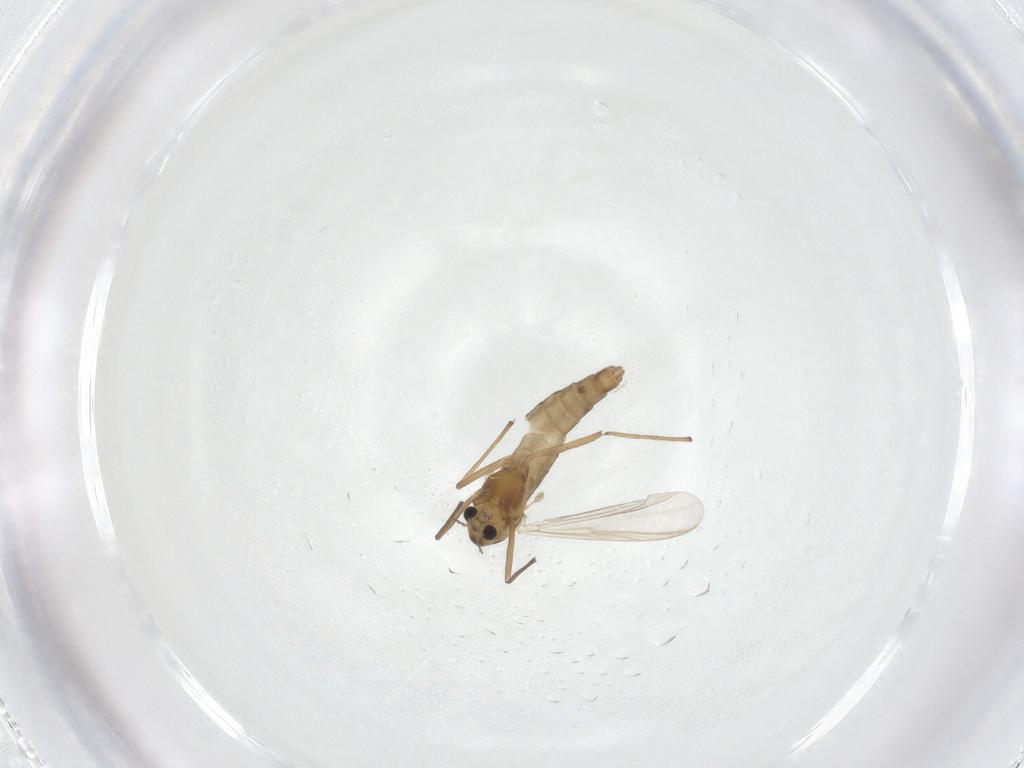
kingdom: Animalia
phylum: Arthropoda
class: Insecta
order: Diptera
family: Chironomidae
